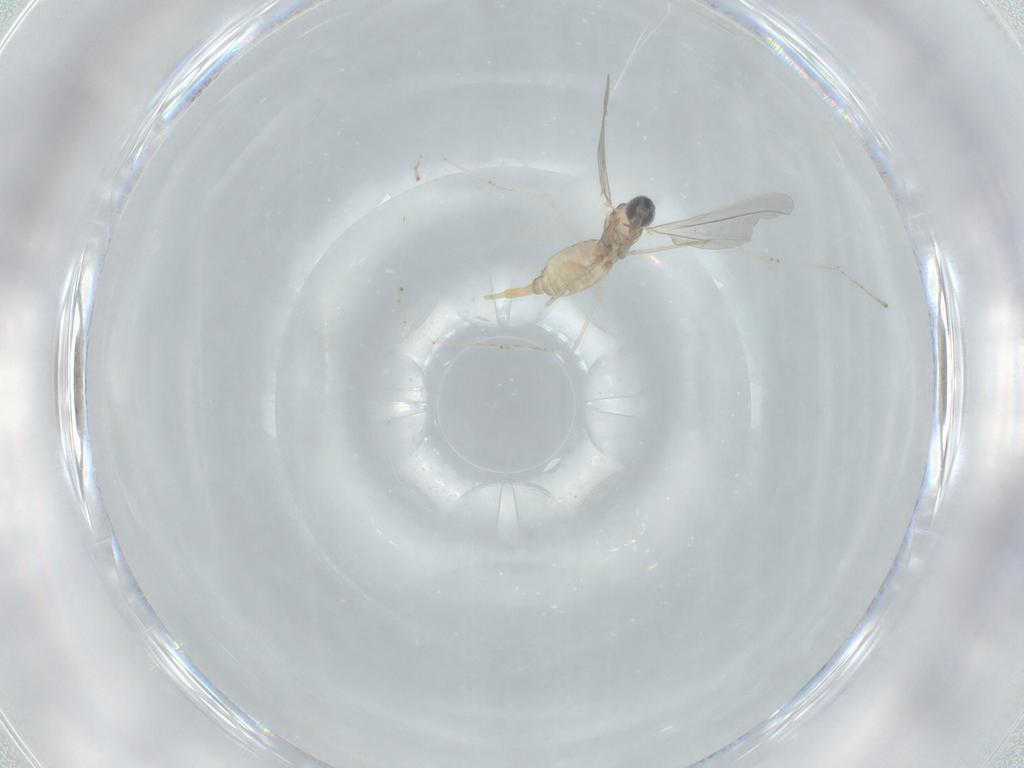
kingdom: Animalia
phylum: Arthropoda
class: Insecta
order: Diptera
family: Cecidomyiidae
